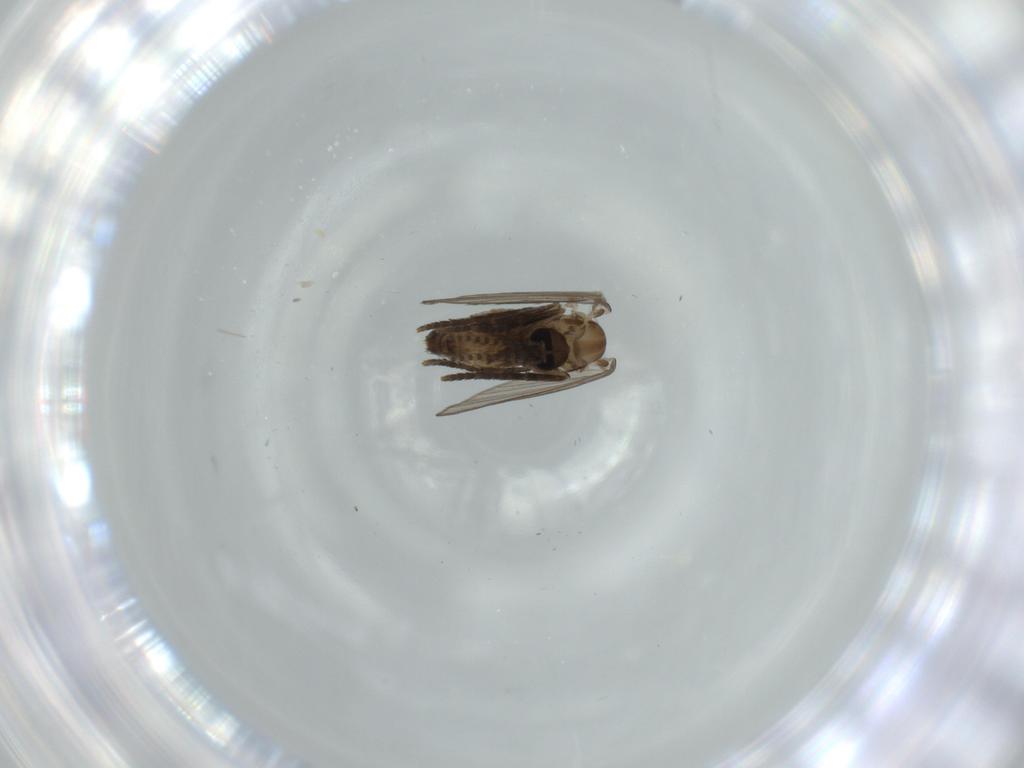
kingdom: Animalia
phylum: Arthropoda
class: Insecta
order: Diptera
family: Psychodidae
